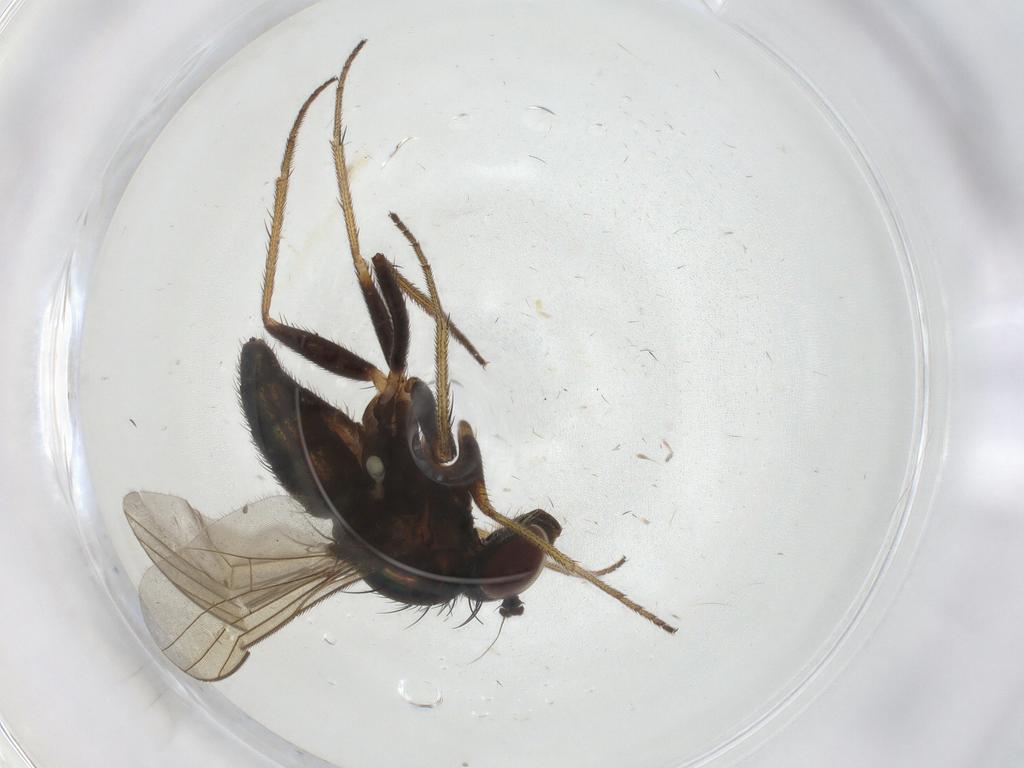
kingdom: Animalia
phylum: Arthropoda
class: Insecta
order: Diptera
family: Dolichopodidae
